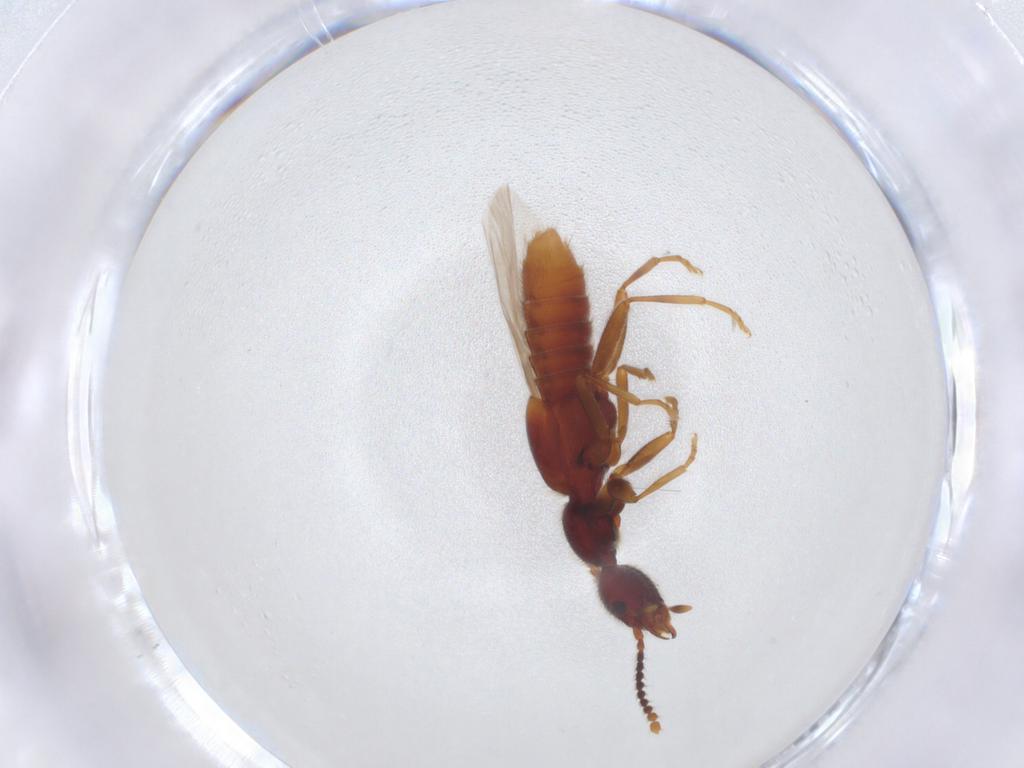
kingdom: Animalia
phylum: Arthropoda
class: Insecta
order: Coleoptera
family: Staphylinidae
